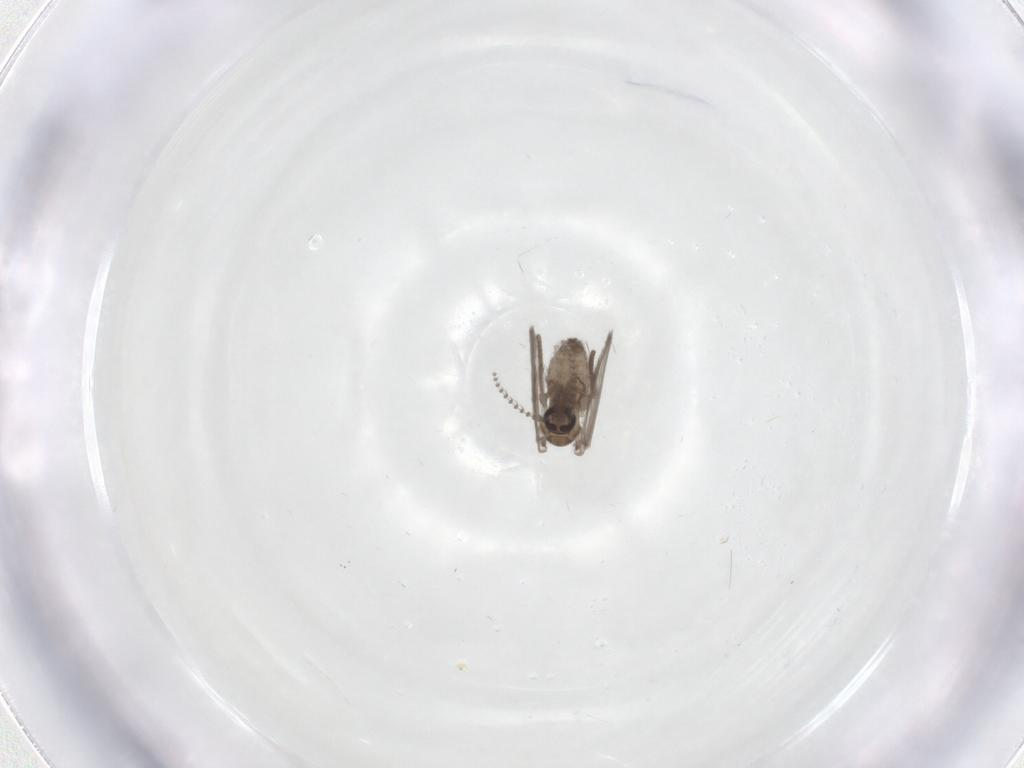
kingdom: Animalia
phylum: Arthropoda
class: Insecta
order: Diptera
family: Psychodidae
